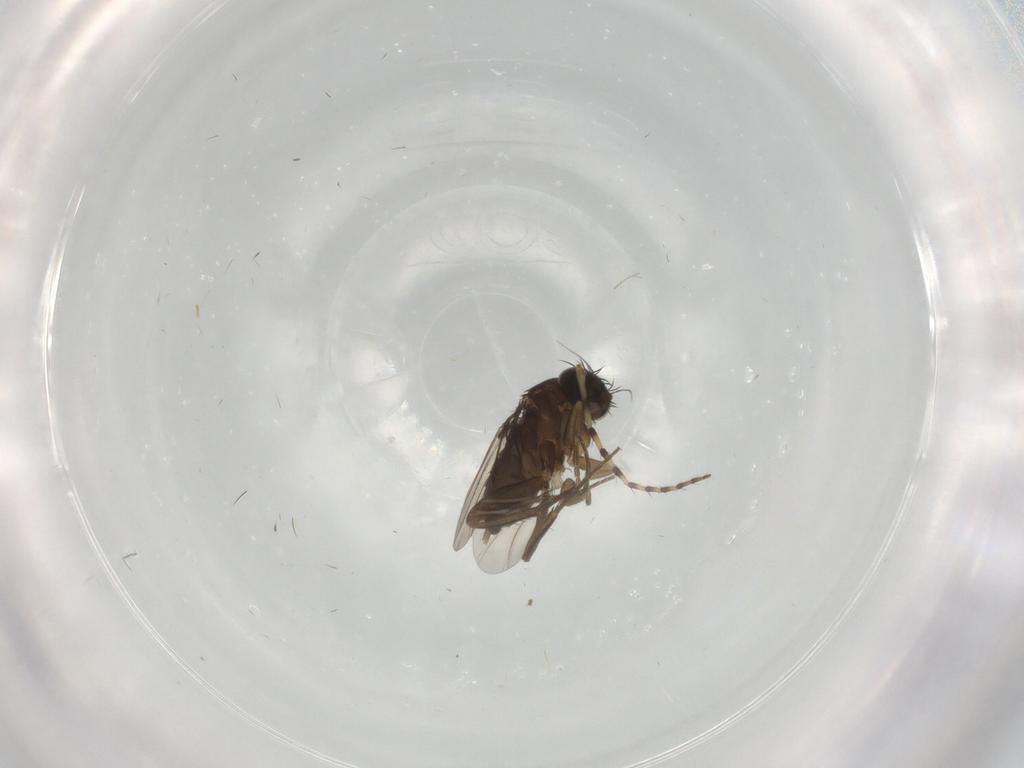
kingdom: Animalia
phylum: Arthropoda
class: Insecta
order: Diptera
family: Phoridae
